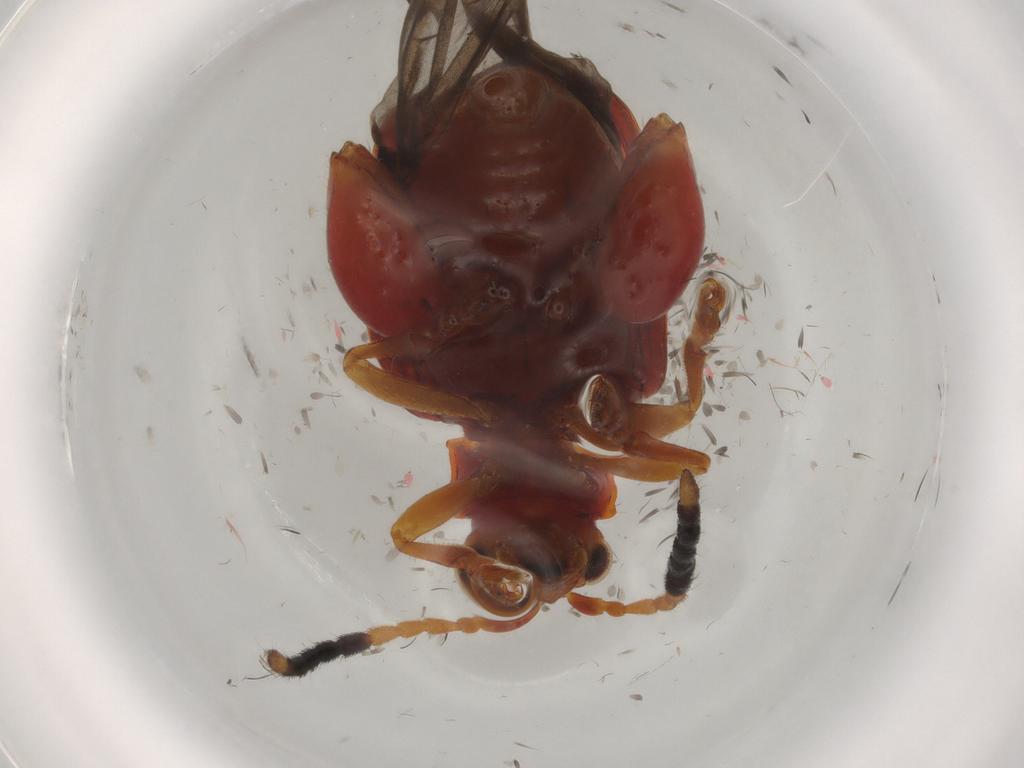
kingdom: Animalia
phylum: Arthropoda
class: Insecta
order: Coleoptera
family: Chrysomelidae
